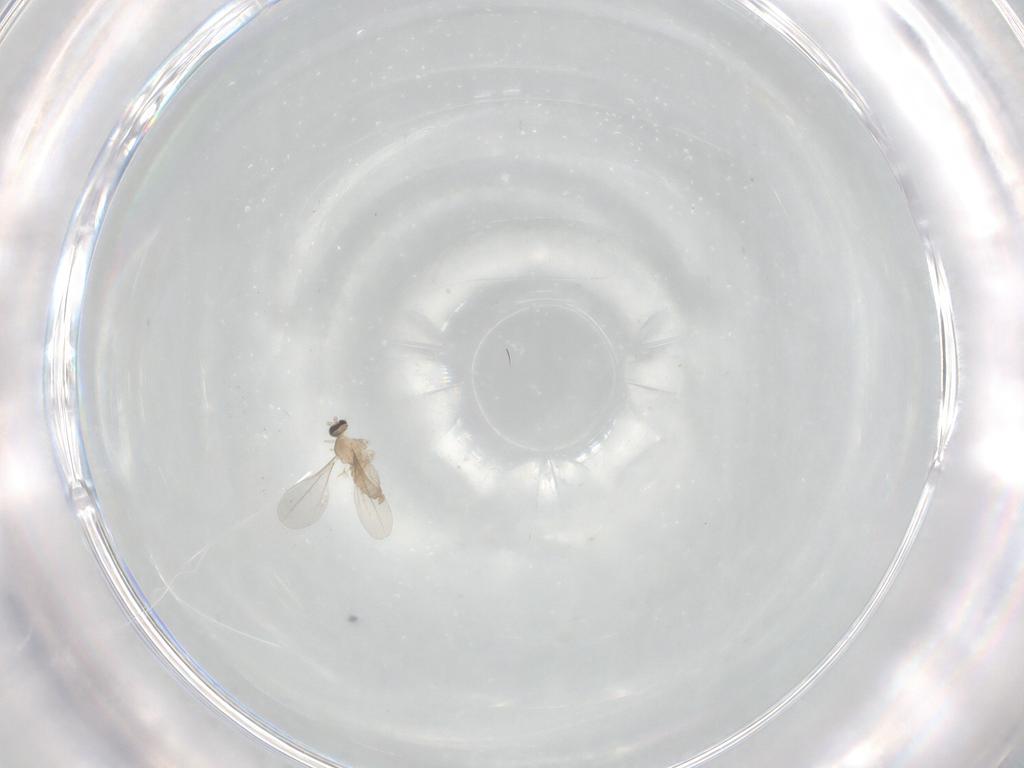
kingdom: Animalia
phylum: Arthropoda
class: Insecta
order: Diptera
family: Cecidomyiidae
